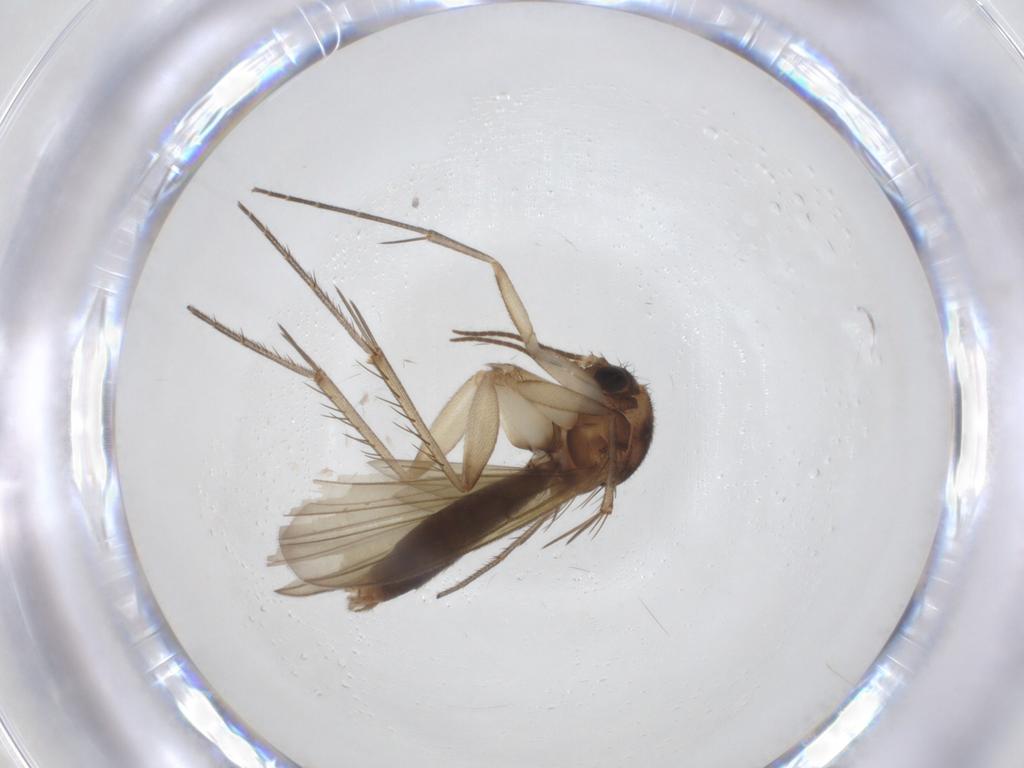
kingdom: Animalia
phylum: Arthropoda
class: Insecta
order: Diptera
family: Mycetophilidae
